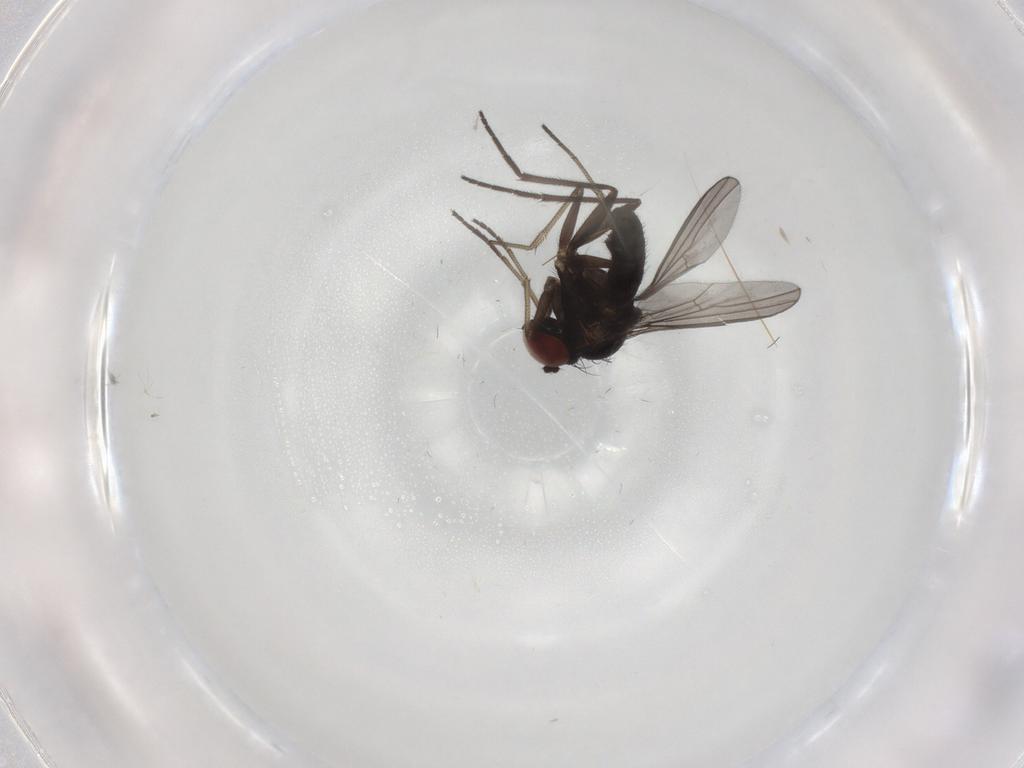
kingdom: Animalia
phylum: Arthropoda
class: Insecta
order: Diptera
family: Dolichopodidae
